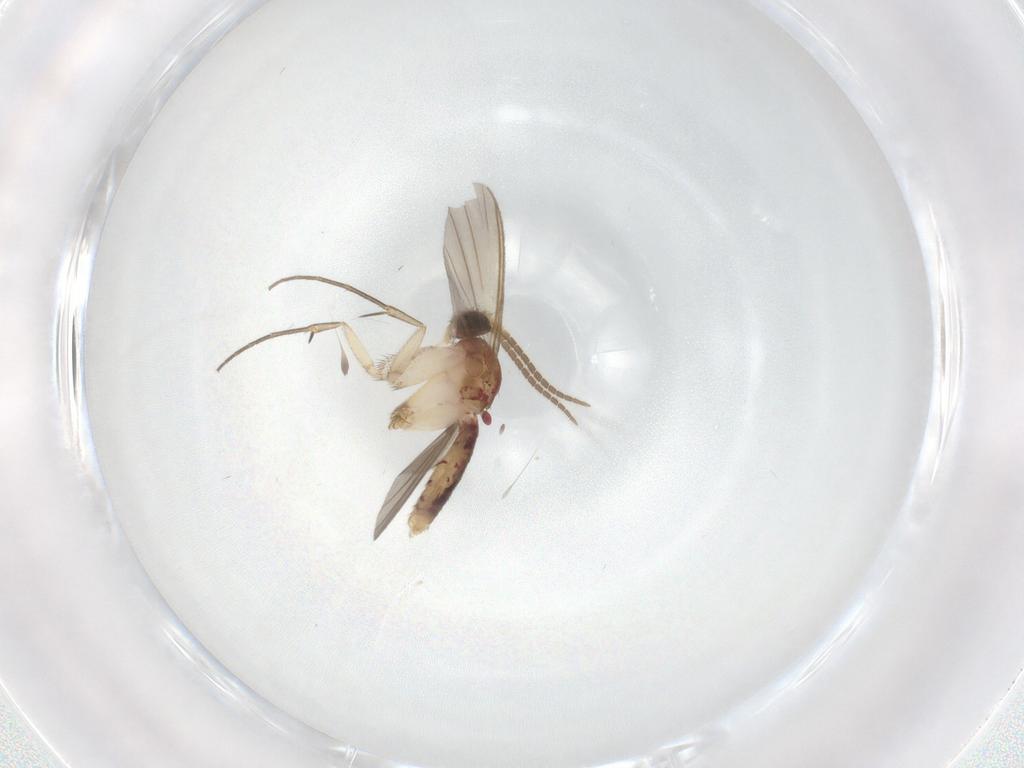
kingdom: Animalia
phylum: Arthropoda
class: Insecta
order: Diptera
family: Mycetophilidae
